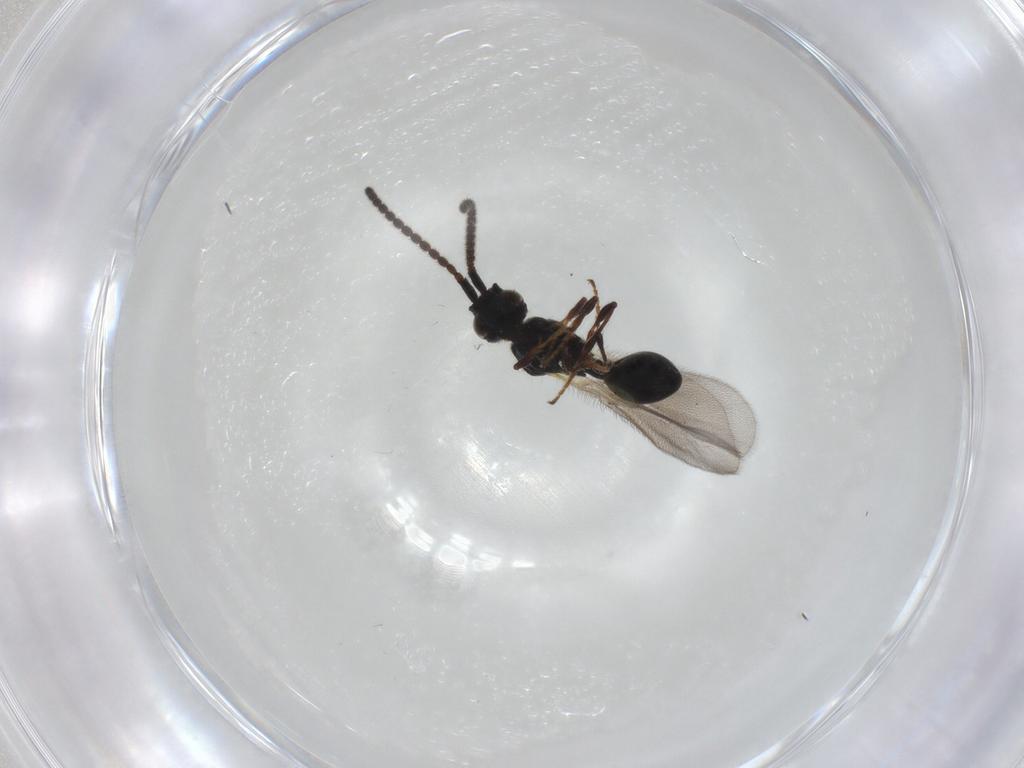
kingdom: Animalia
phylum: Arthropoda
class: Insecta
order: Hymenoptera
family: Diapriidae
